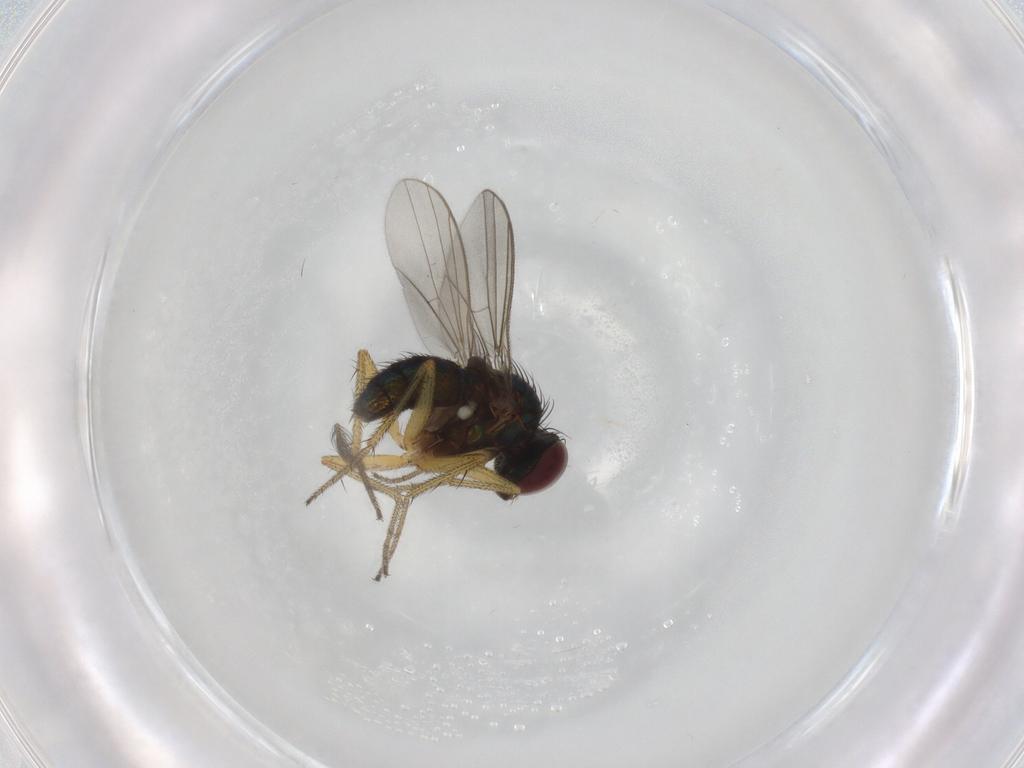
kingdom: Animalia
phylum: Arthropoda
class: Insecta
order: Diptera
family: Ceratopogonidae
